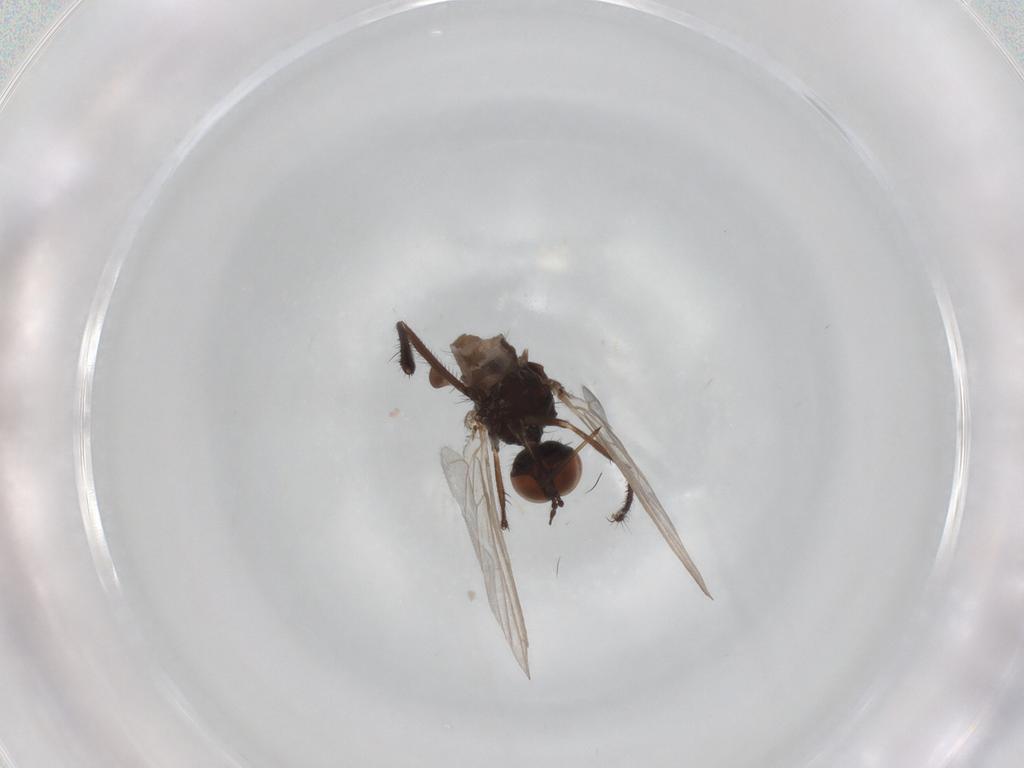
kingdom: Animalia
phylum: Arthropoda
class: Insecta
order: Diptera
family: Empididae
